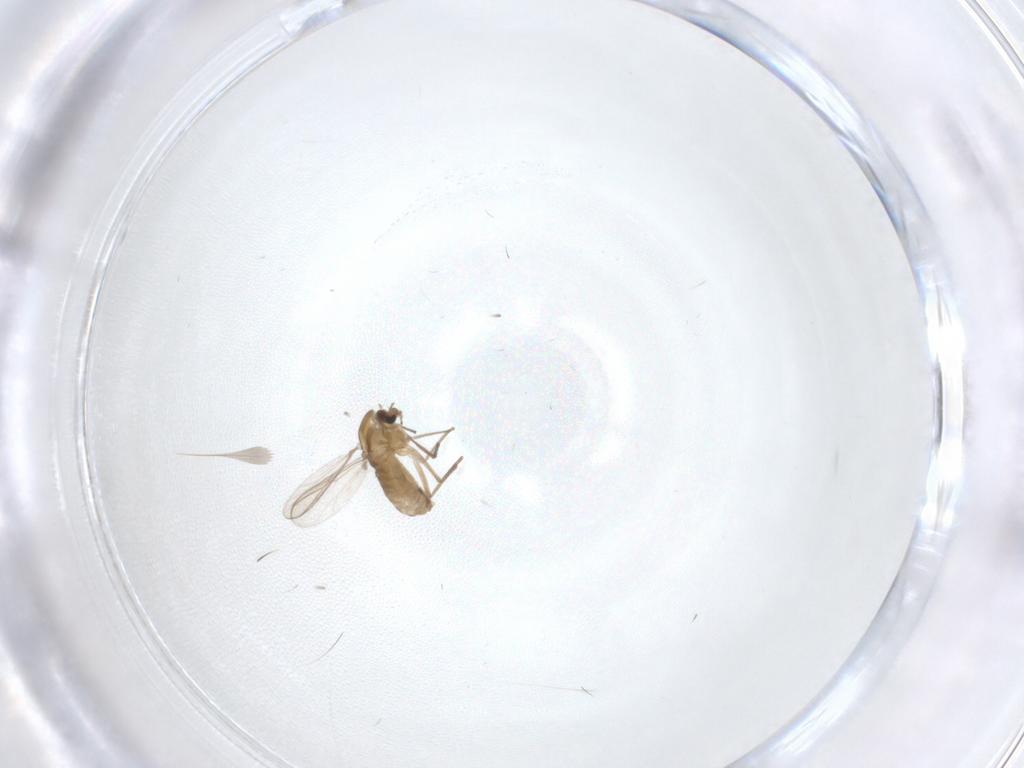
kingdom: Animalia
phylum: Arthropoda
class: Insecta
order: Diptera
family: Chironomidae
